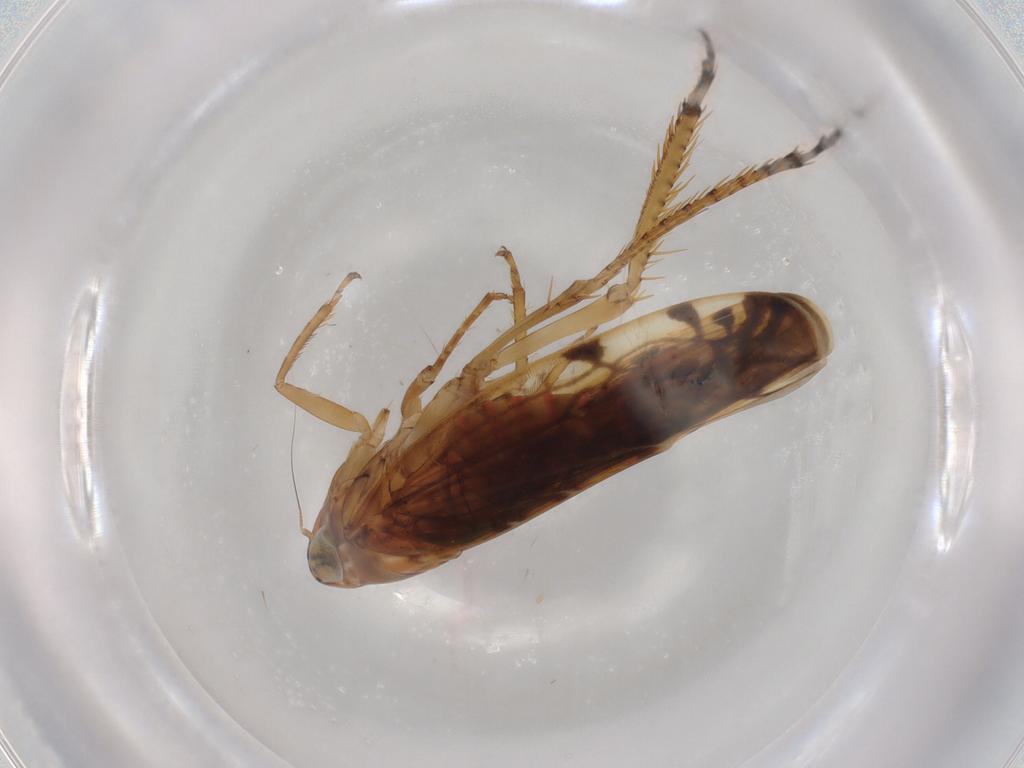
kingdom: Animalia
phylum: Arthropoda
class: Insecta
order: Hemiptera
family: Cicadellidae
